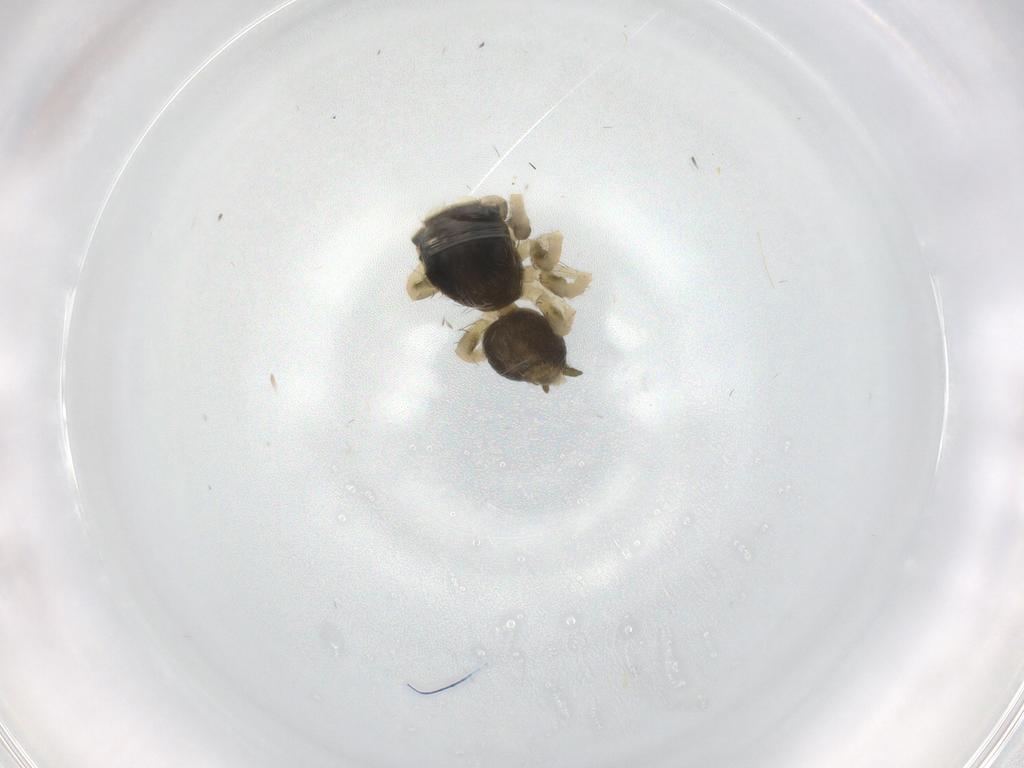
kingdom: Animalia
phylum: Arthropoda
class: Arachnida
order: Araneae
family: Salticidae
